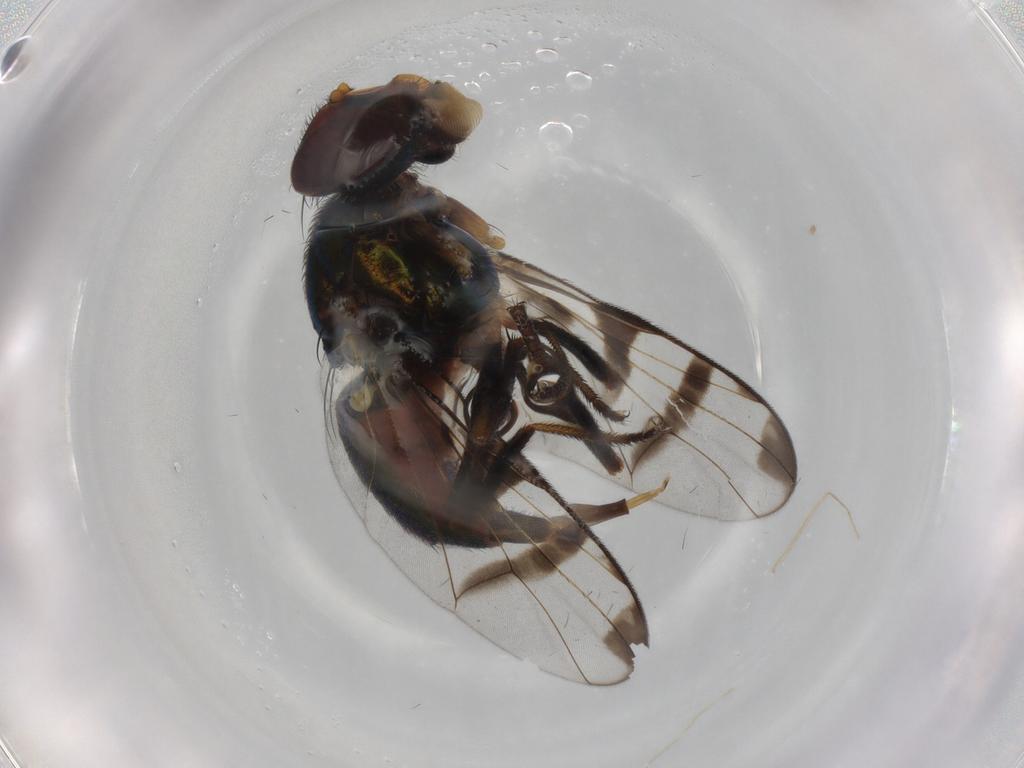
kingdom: Animalia
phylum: Arthropoda
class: Insecta
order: Diptera
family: Platystomatidae
